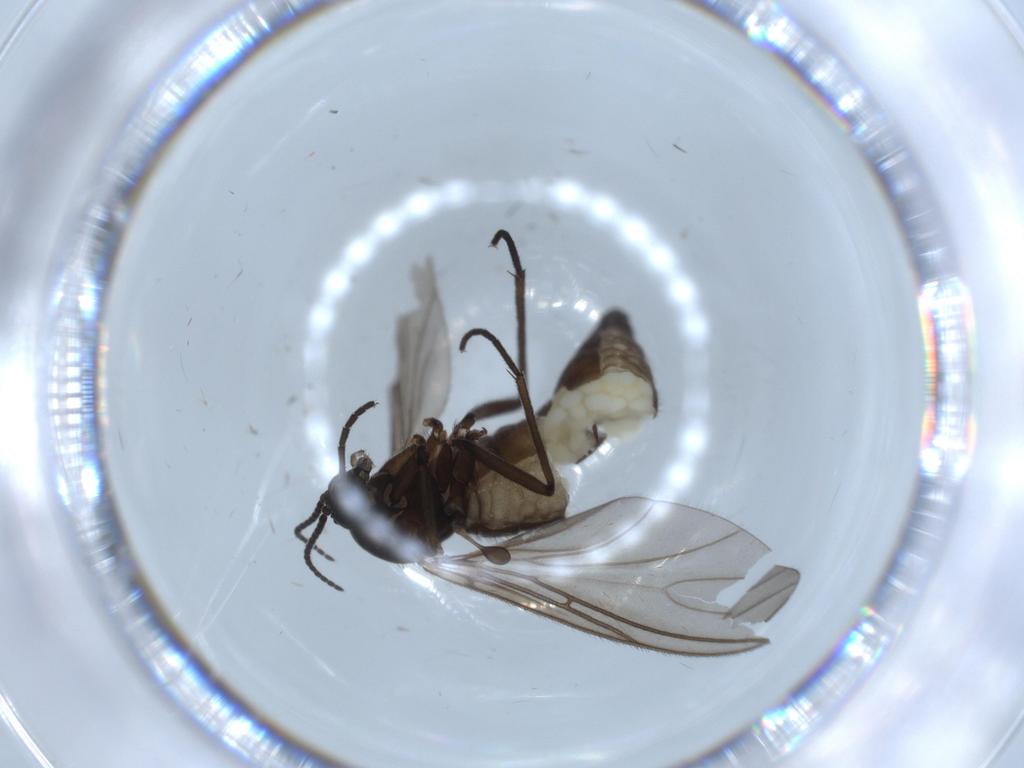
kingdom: Animalia
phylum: Arthropoda
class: Insecta
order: Diptera
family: Sciaridae
